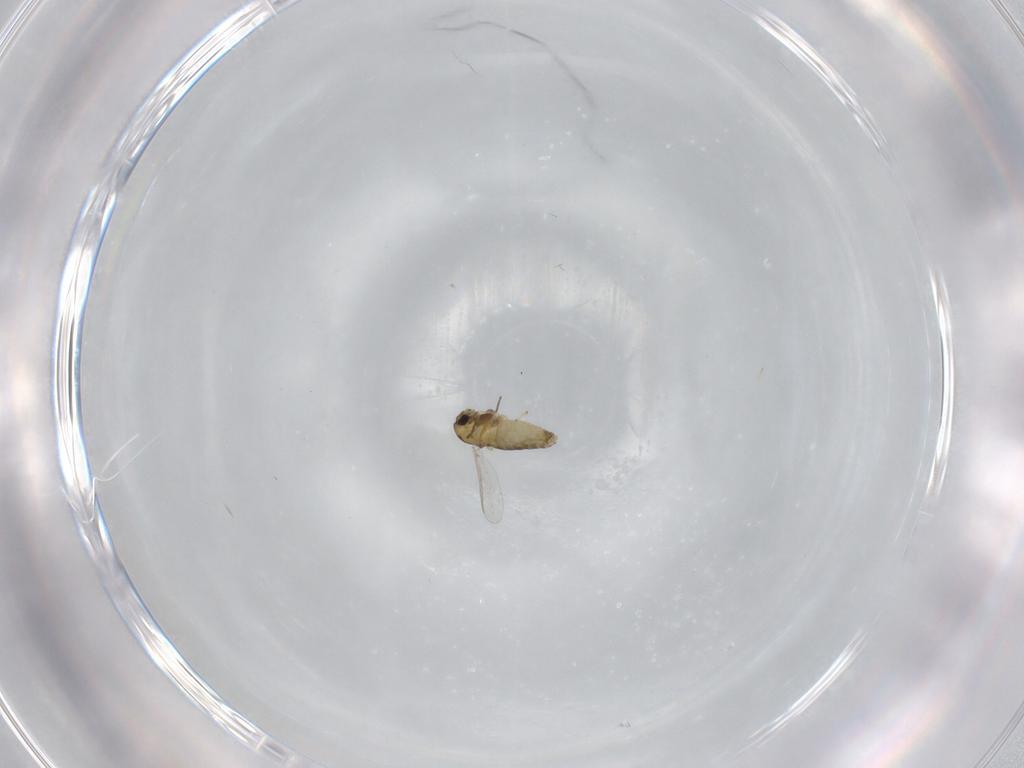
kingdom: Animalia
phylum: Arthropoda
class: Insecta
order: Diptera
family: Chironomidae
